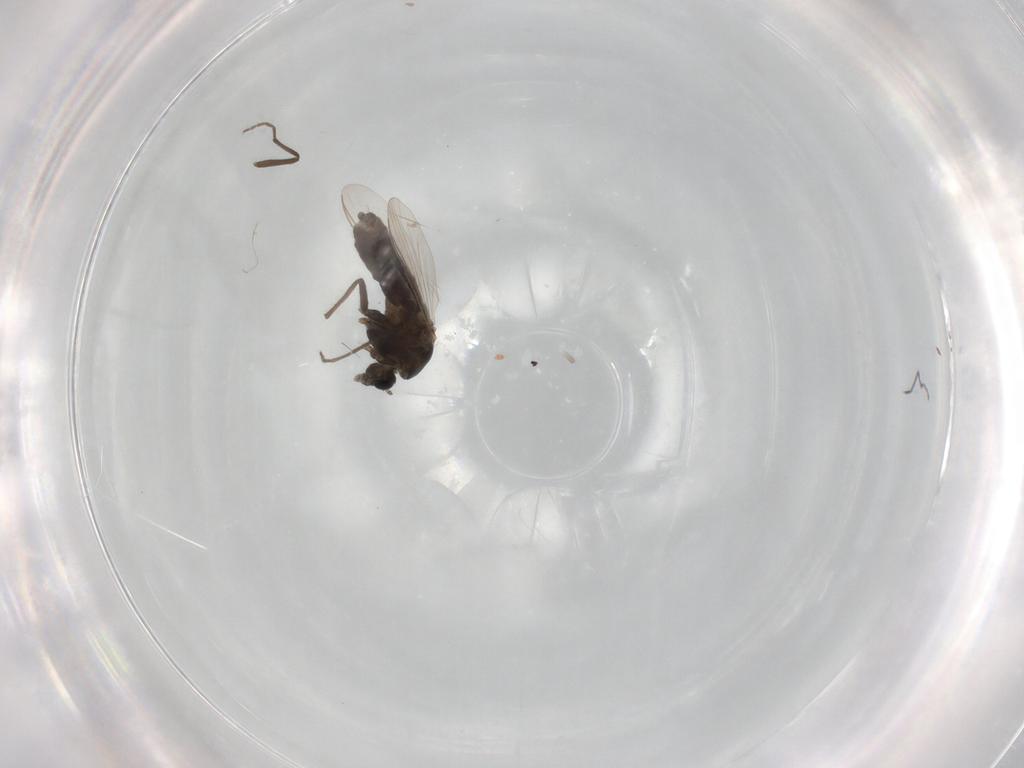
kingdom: Animalia
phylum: Arthropoda
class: Insecta
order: Diptera
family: Chironomidae
